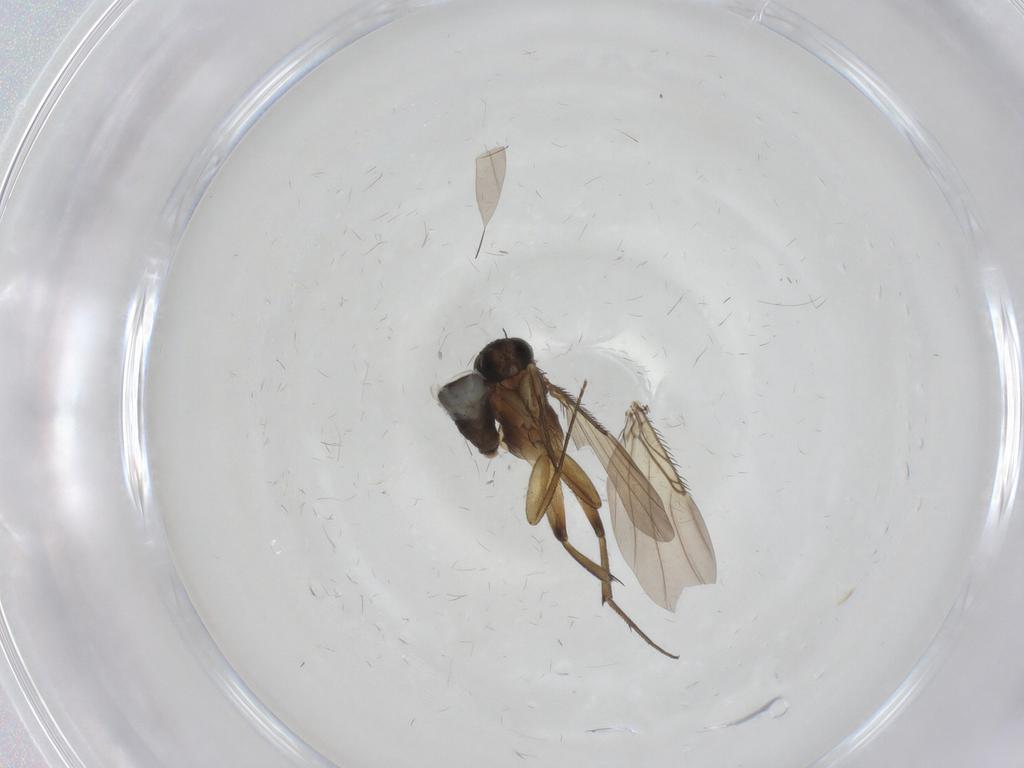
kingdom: Animalia
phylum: Arthropoda
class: Insecta
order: Diptera
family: Phoridae
